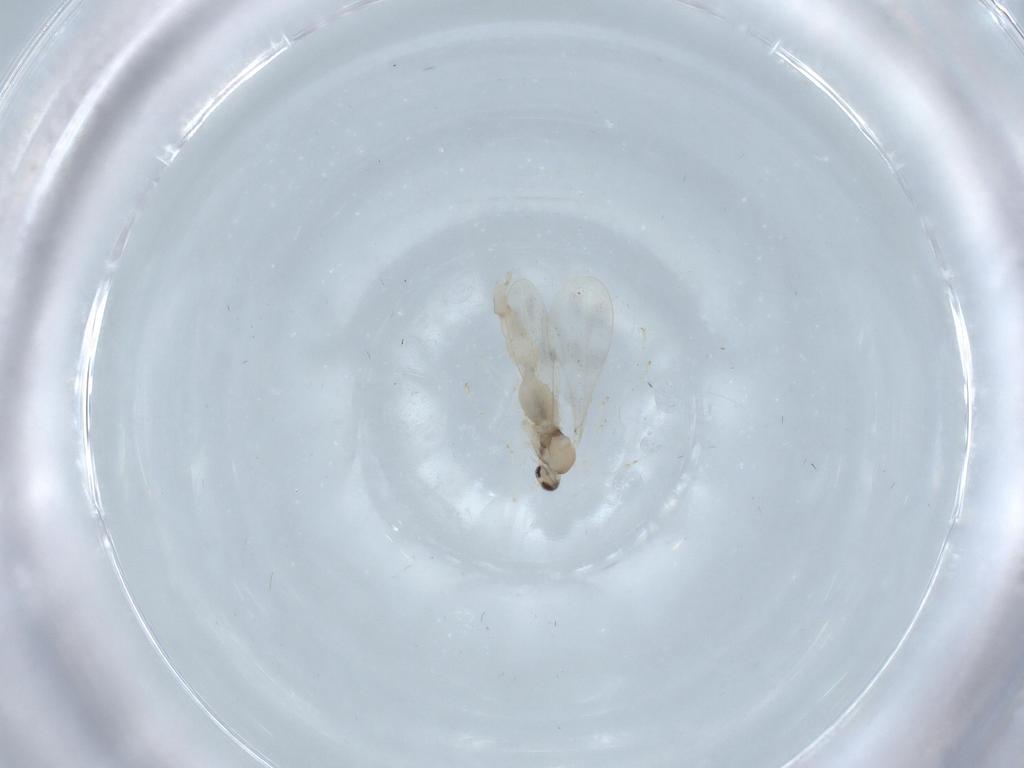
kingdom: Animalia
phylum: Arthropoda
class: Insecta
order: Diptera
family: Cecidomyiidae
